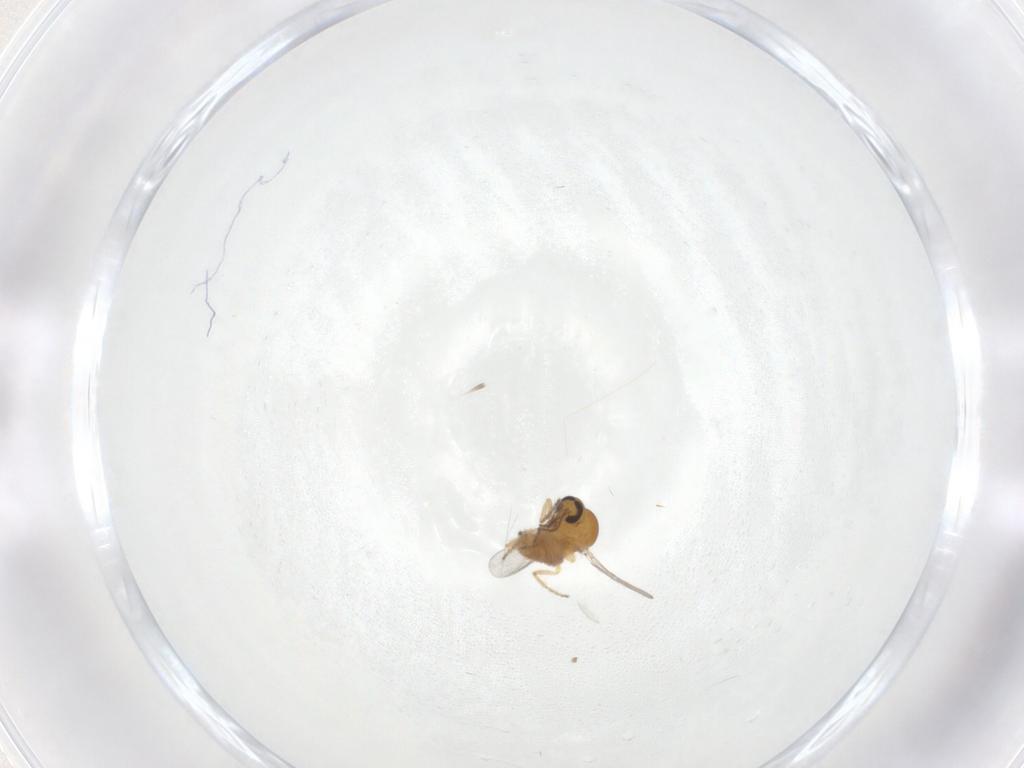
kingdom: Animalia
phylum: Arthropoda
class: Insecta
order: Diptera
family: Ceratopogonidae
